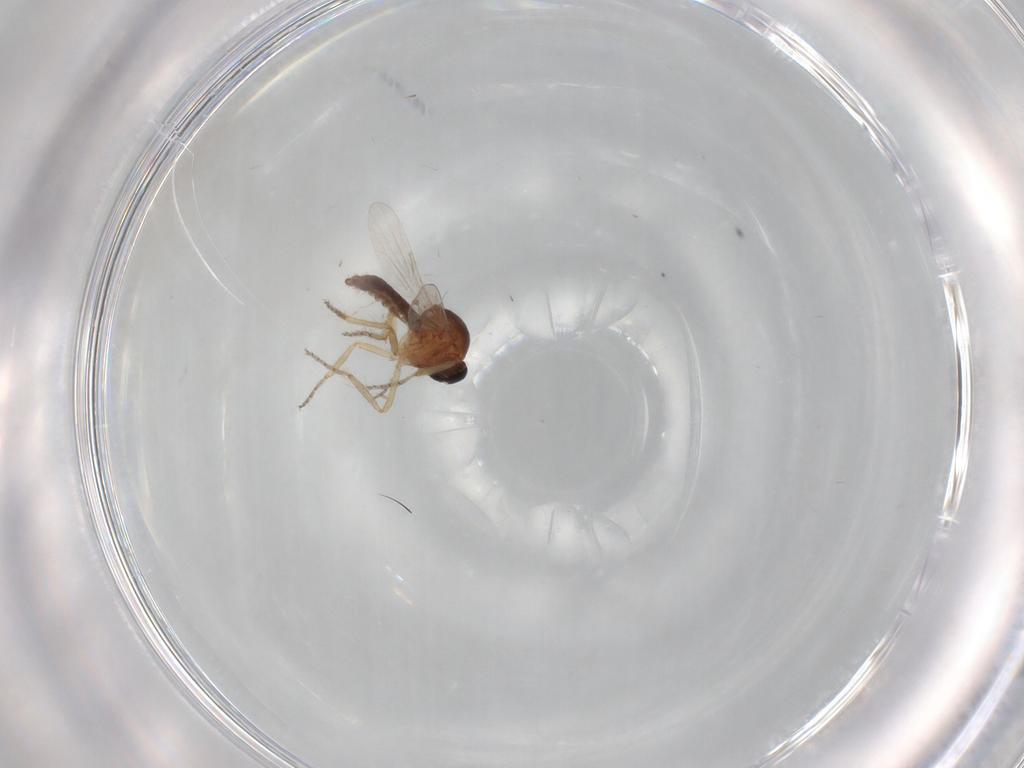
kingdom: Animalia
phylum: Arthropoda
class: Insecta
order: Diptera
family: Ceratopogonidae
